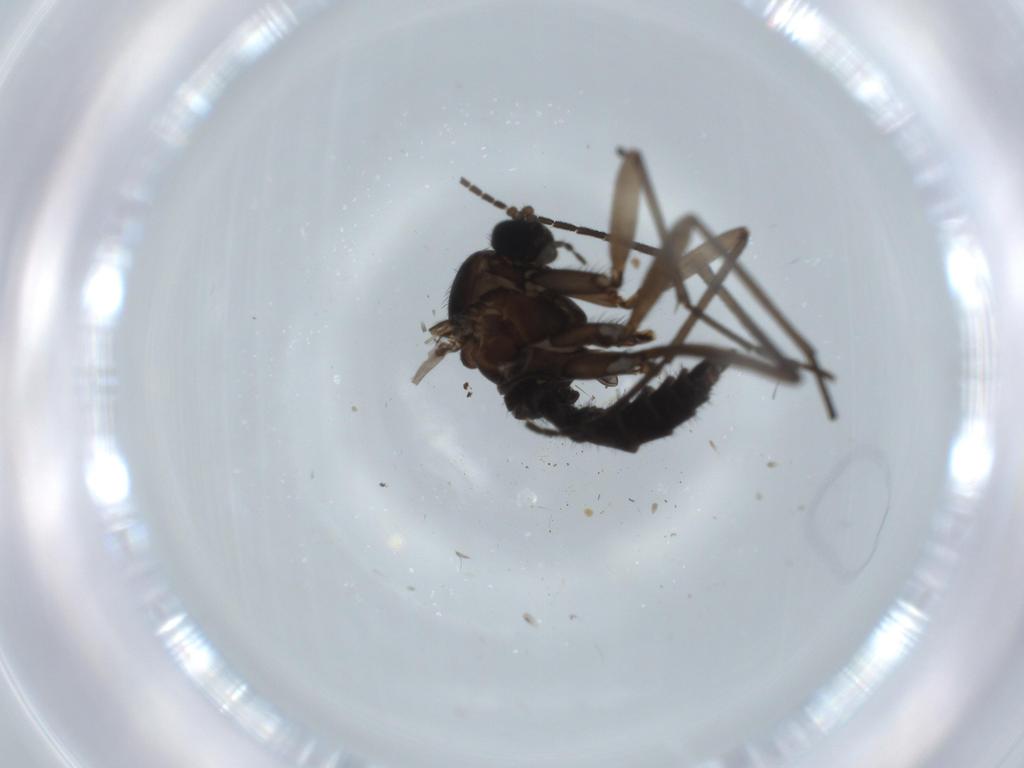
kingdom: Animalia
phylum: Arthropoda
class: Insecta
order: Diptera
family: Sciaridae
